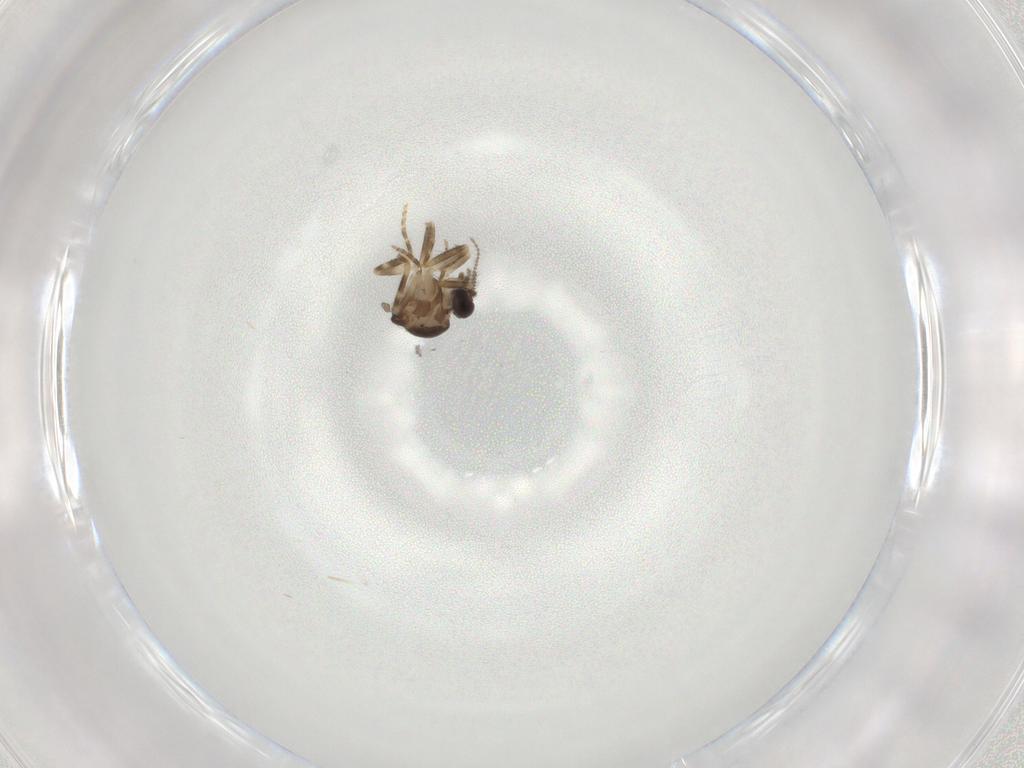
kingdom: Animalia
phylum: Arthropoda
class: Insecta
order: Diptera
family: Ceratopogonidae
